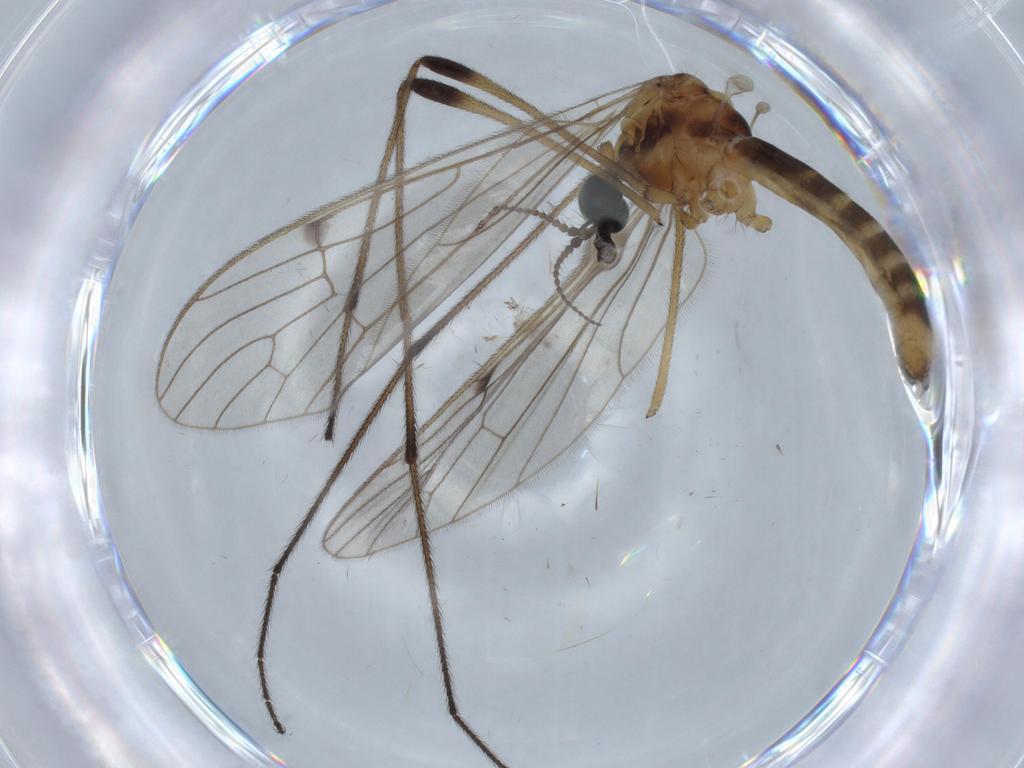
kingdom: Animalia
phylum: Arthropoda
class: Insecta
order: Diptera
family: Psychodidae
